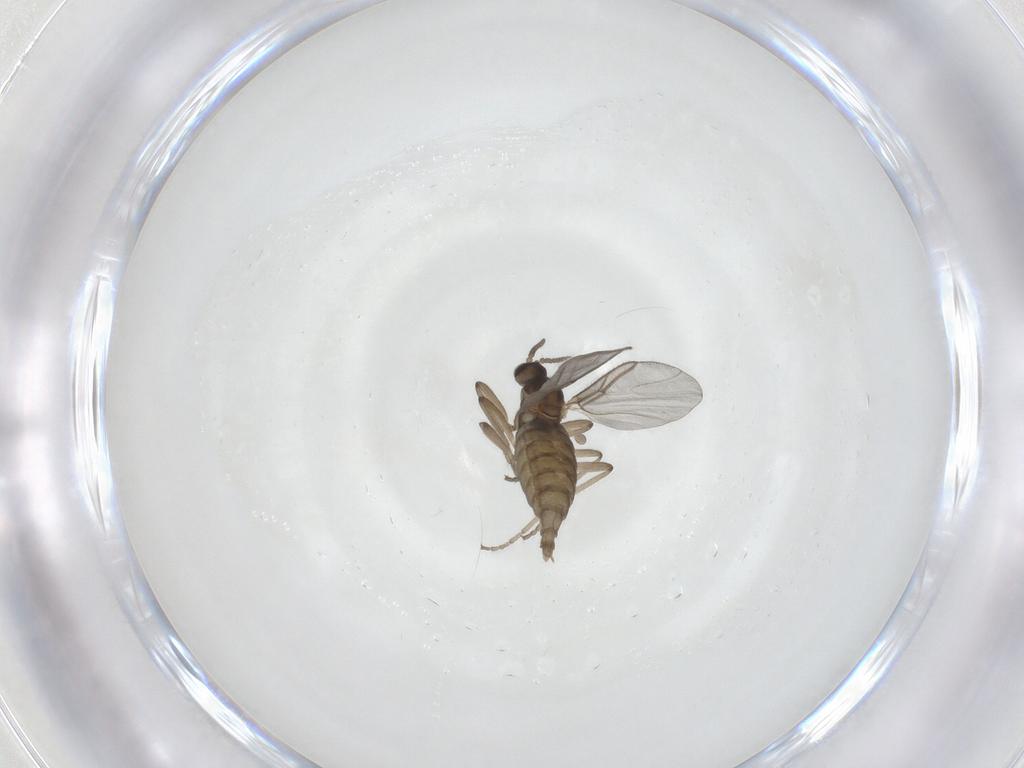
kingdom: Animalia
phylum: Arthropoda
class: Insecta
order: Diptera
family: Cecidomyiidae
